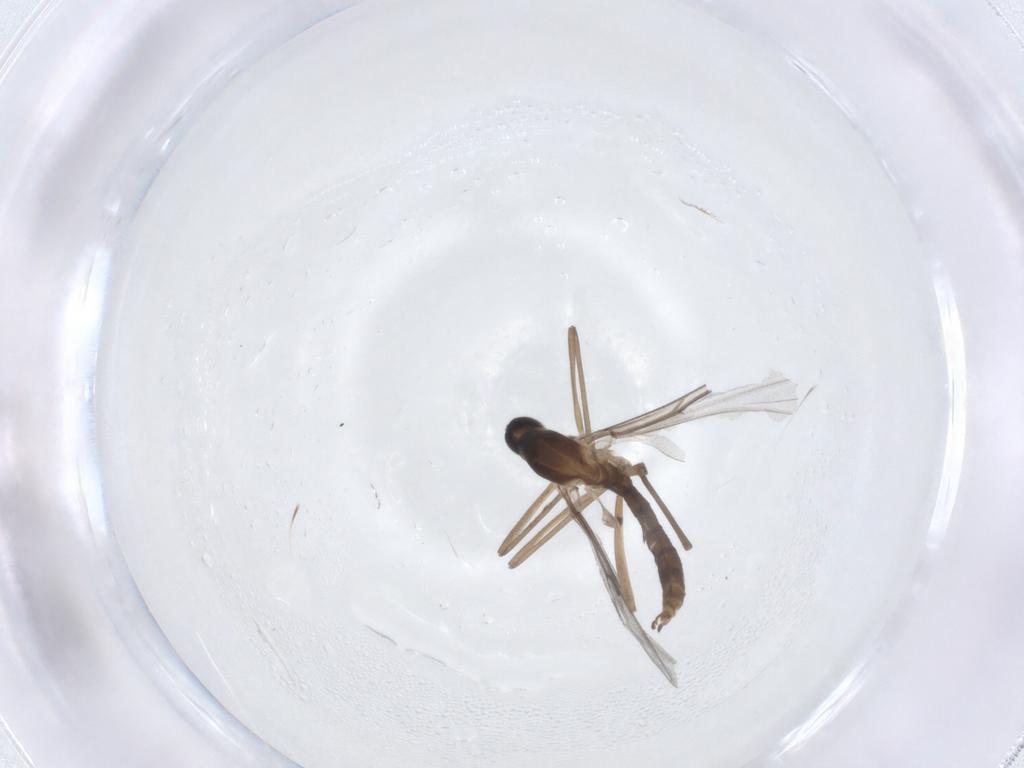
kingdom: Animalia
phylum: Arthropoda
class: Insecta
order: Diptera
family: Cecidomyiidae
